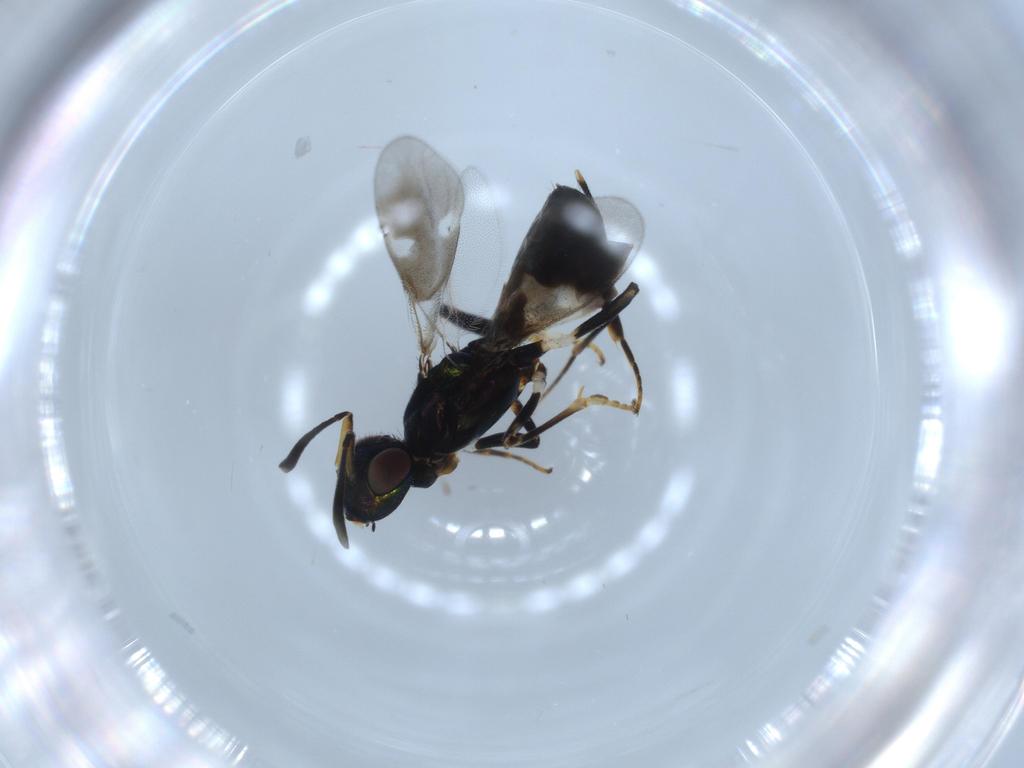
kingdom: Animalia
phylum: Arthropoda
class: Insecta
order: Hymenoptera
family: Eupelmidae
